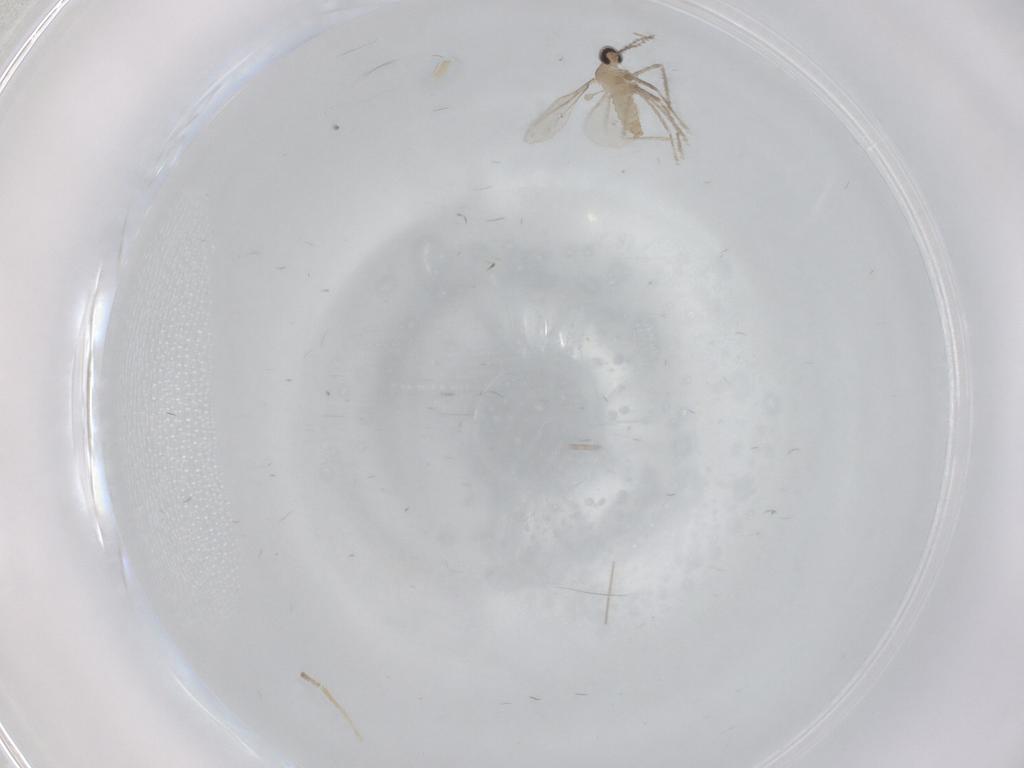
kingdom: Animalia
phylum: Arthropoda
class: Insecta
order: Diptera
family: Cecidomyiidae
